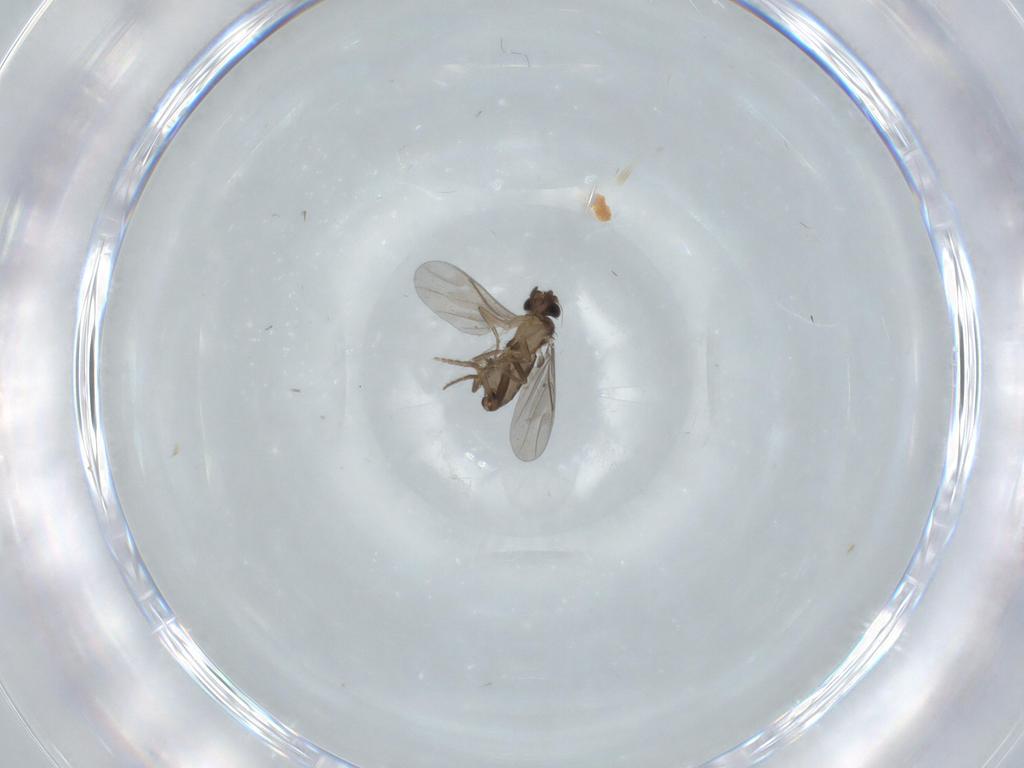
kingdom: Animalia
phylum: Arthropoda
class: Insecta
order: Diptera
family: Chironomidae
